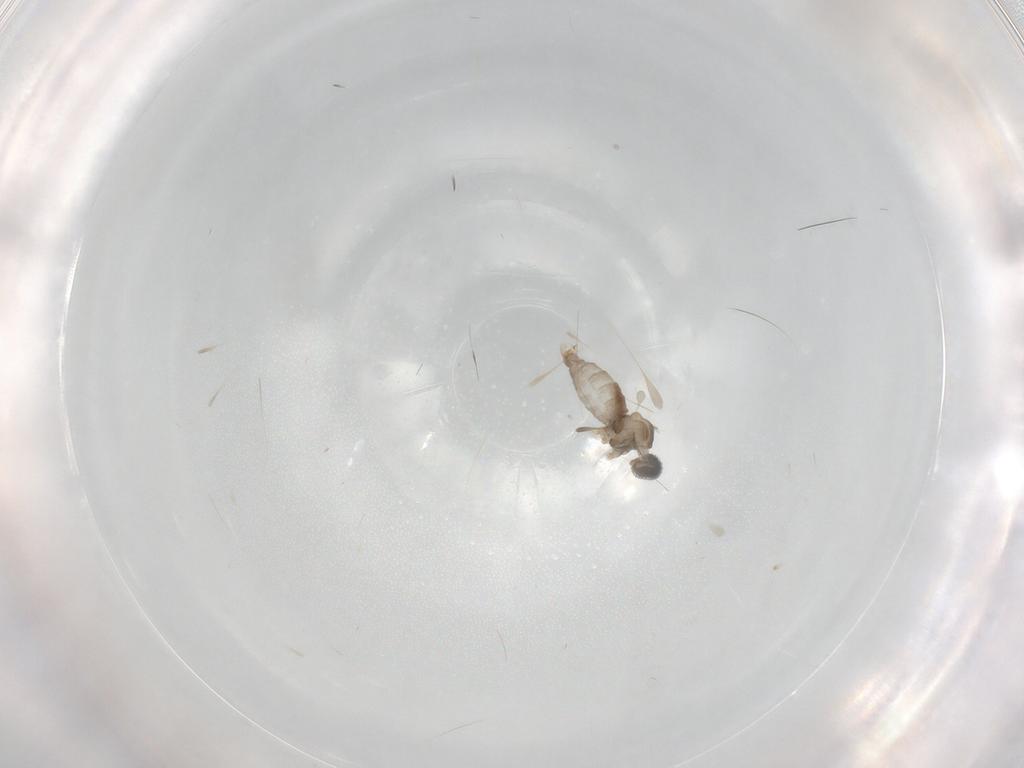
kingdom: Animalia
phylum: Arthropoda
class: Insecta
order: Diptera
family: Cecidomyiidae
